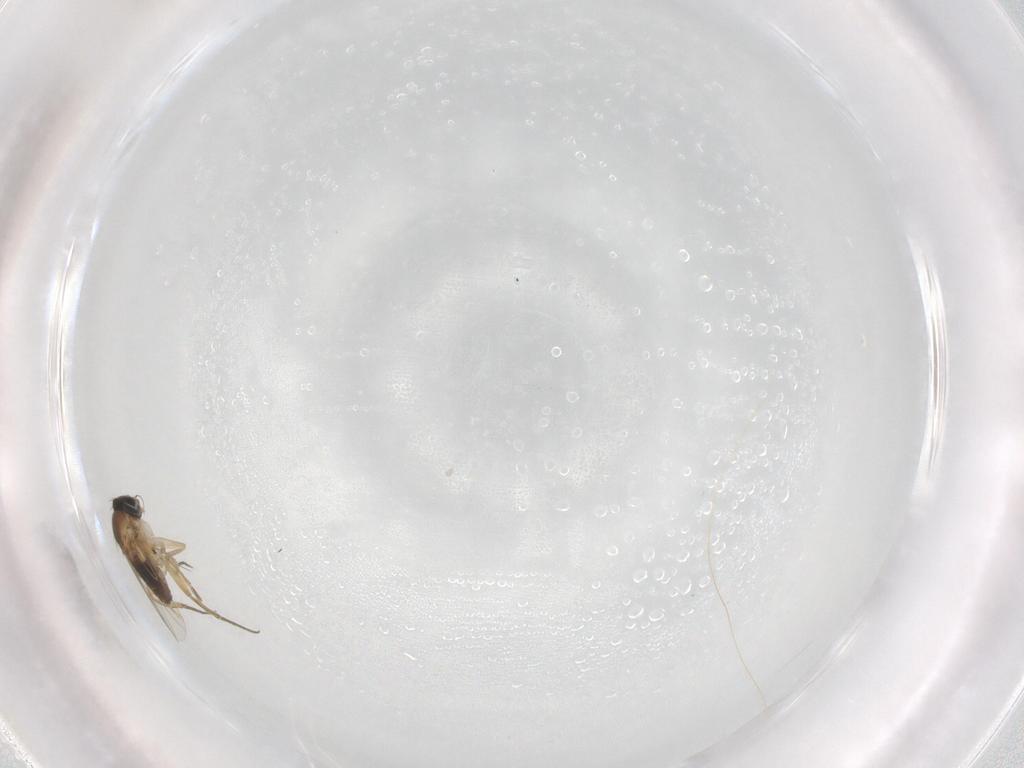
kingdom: Animalia
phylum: Arthropoda
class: Insecta
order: Diptera
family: Phoridae
